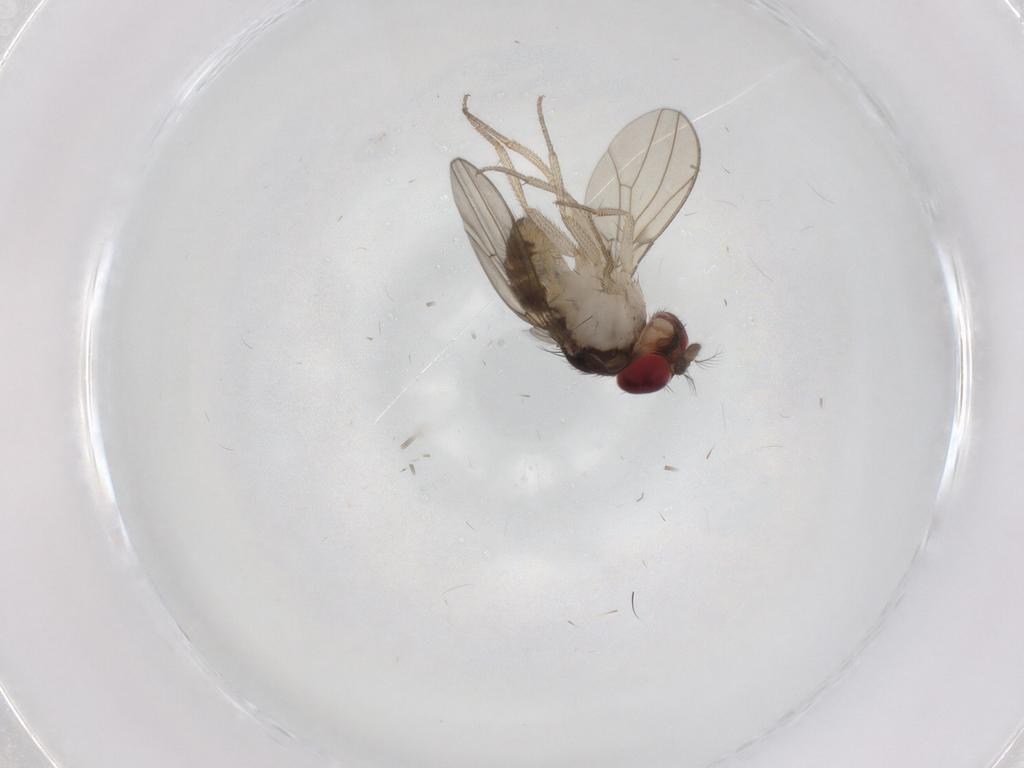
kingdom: Animalia
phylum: Arthropoda
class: Insecta
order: Diptera
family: Drosophilidae
